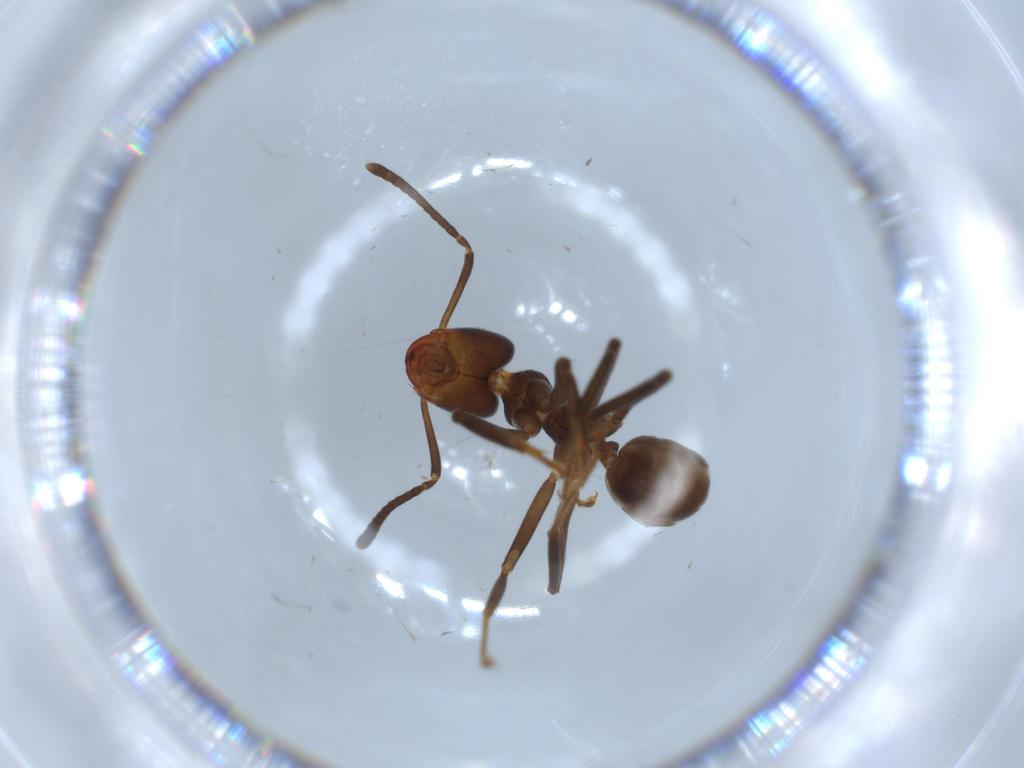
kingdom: Animalia
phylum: Arthropoda
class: Insecta
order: Hymenoptera
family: Formicidae
